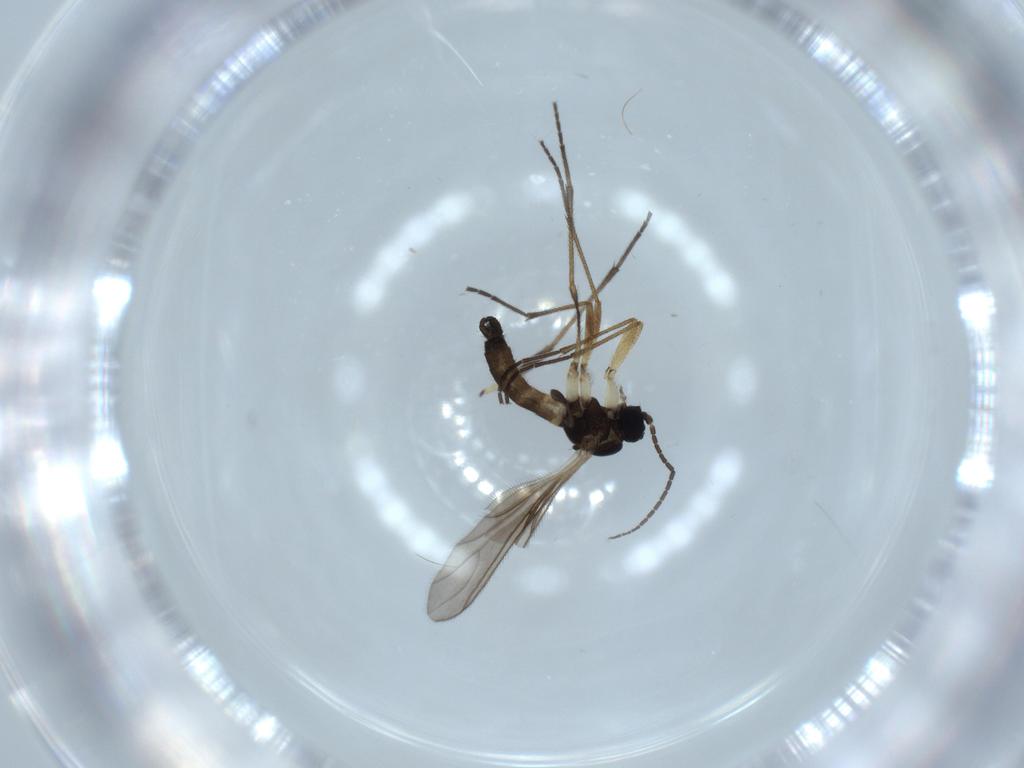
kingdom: Animalia
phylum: Arthropoda
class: Insecta
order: Diptera
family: Sciaridae
